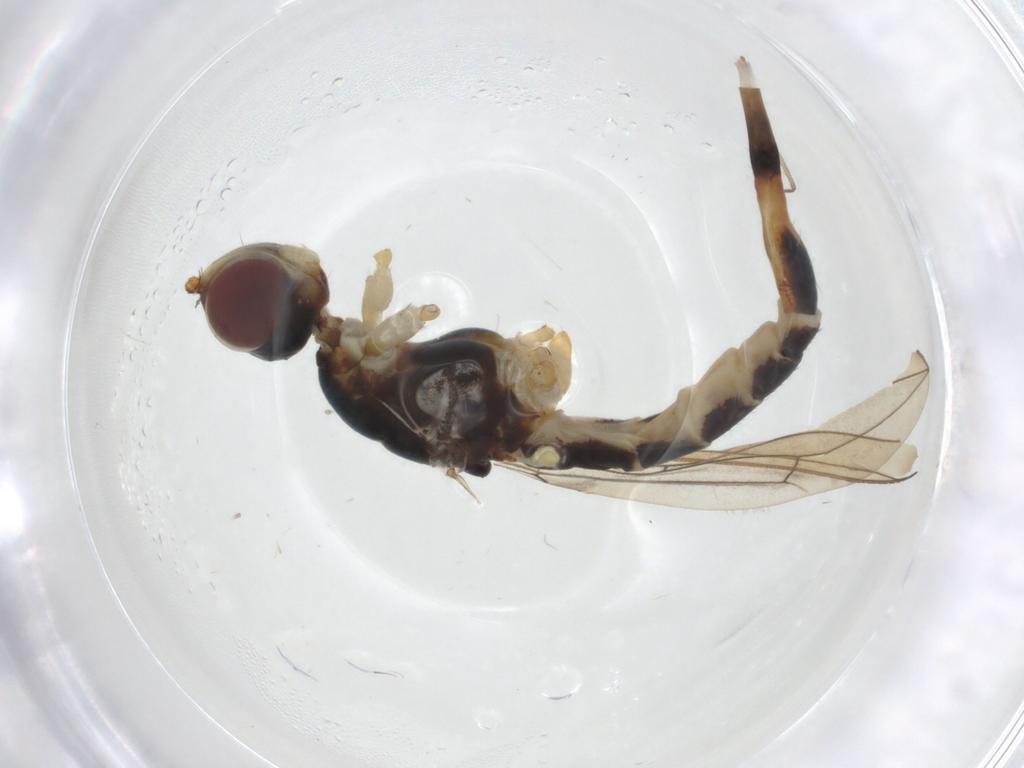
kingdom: Animalia
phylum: Arthropoda
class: Insecta
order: Diptera
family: Micropezidae
